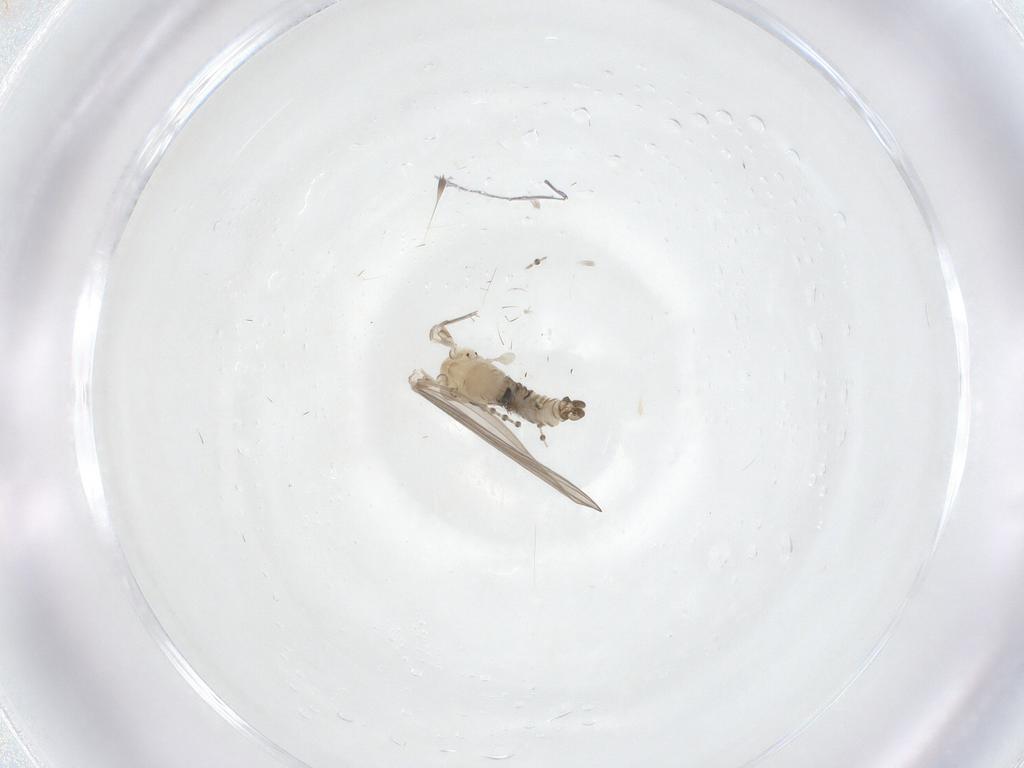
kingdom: Animalia
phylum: Arthropoda
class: Insecta
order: Diptera
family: Psychodidae
